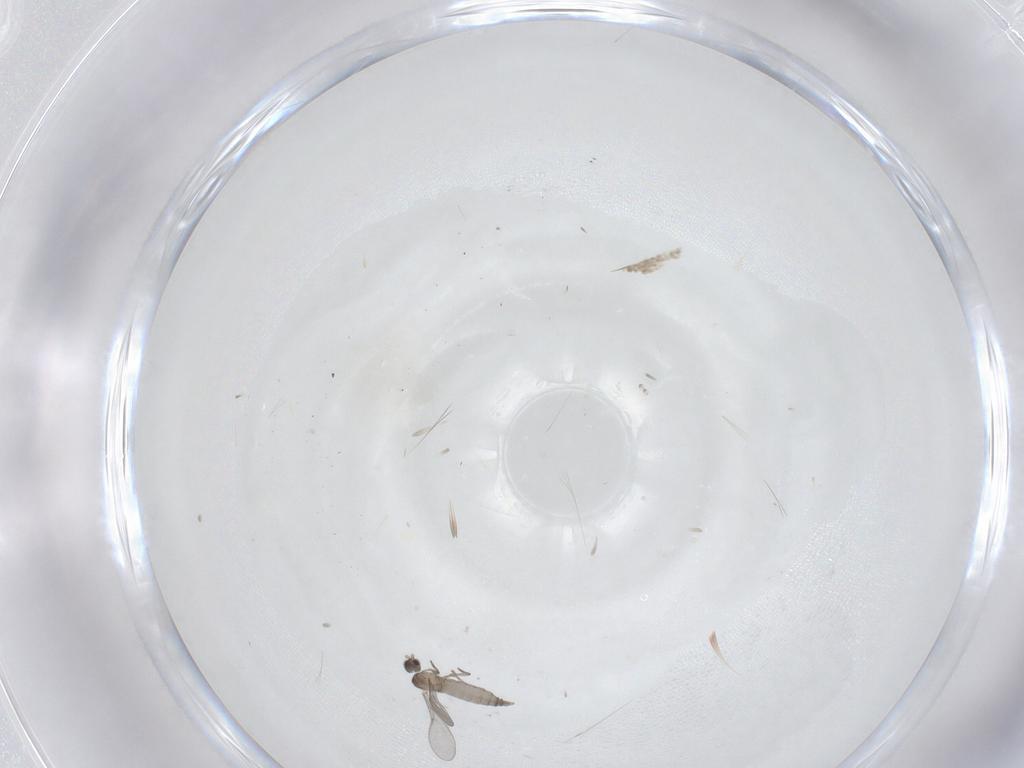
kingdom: Animalia
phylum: Arthropoda
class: Insecta
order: Diptera
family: Cecidomyiidae
